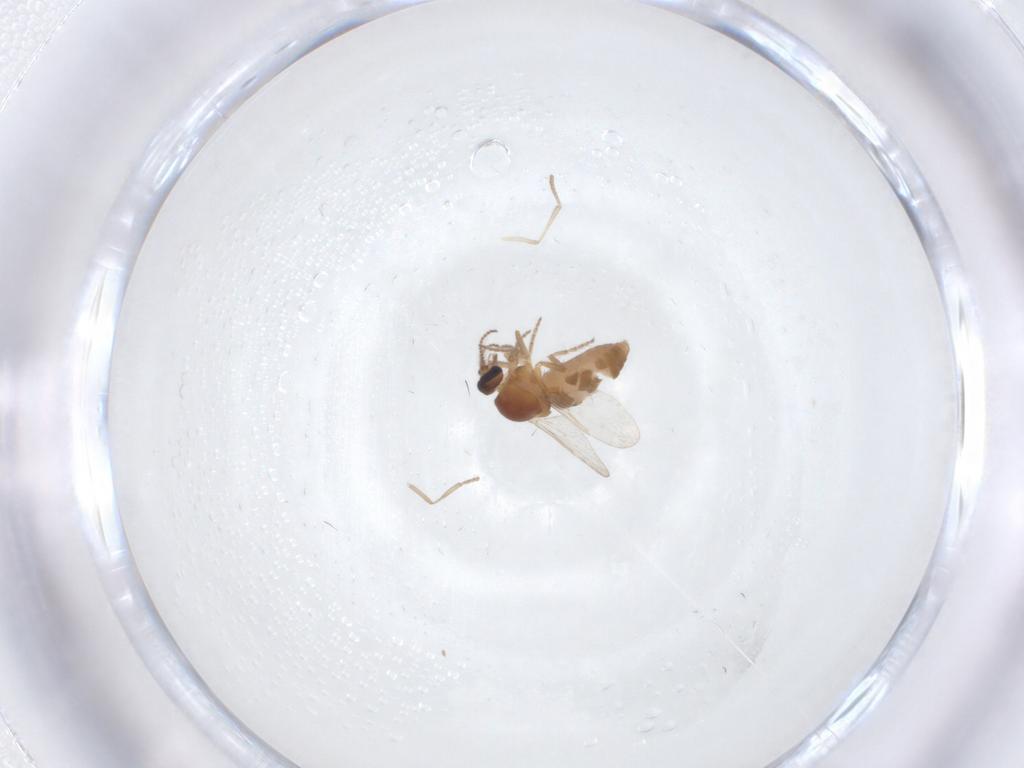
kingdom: Animalia
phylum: Arthropoda
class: Insecta
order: Diptera
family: Ceratopogonidae
